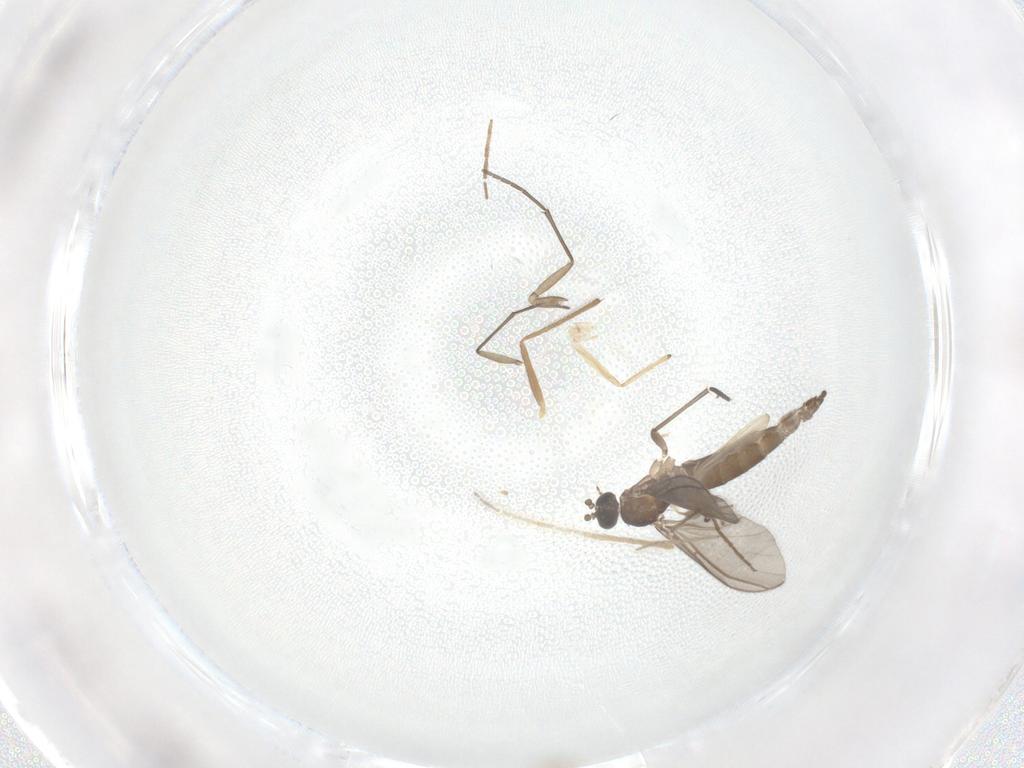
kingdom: Animalia
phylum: Arthropoda
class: Insecta
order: Diptera
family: Sciaridae
